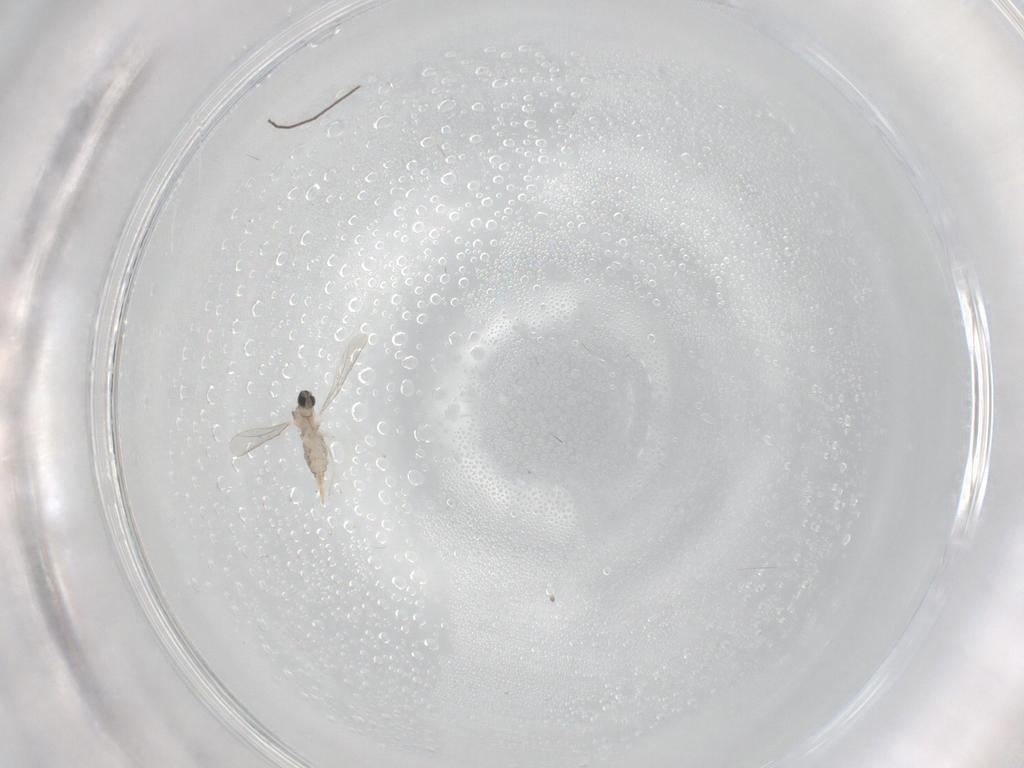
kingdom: Animalia
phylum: Arthropoda
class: Insecta
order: Diptera
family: Cecidomyiidae
